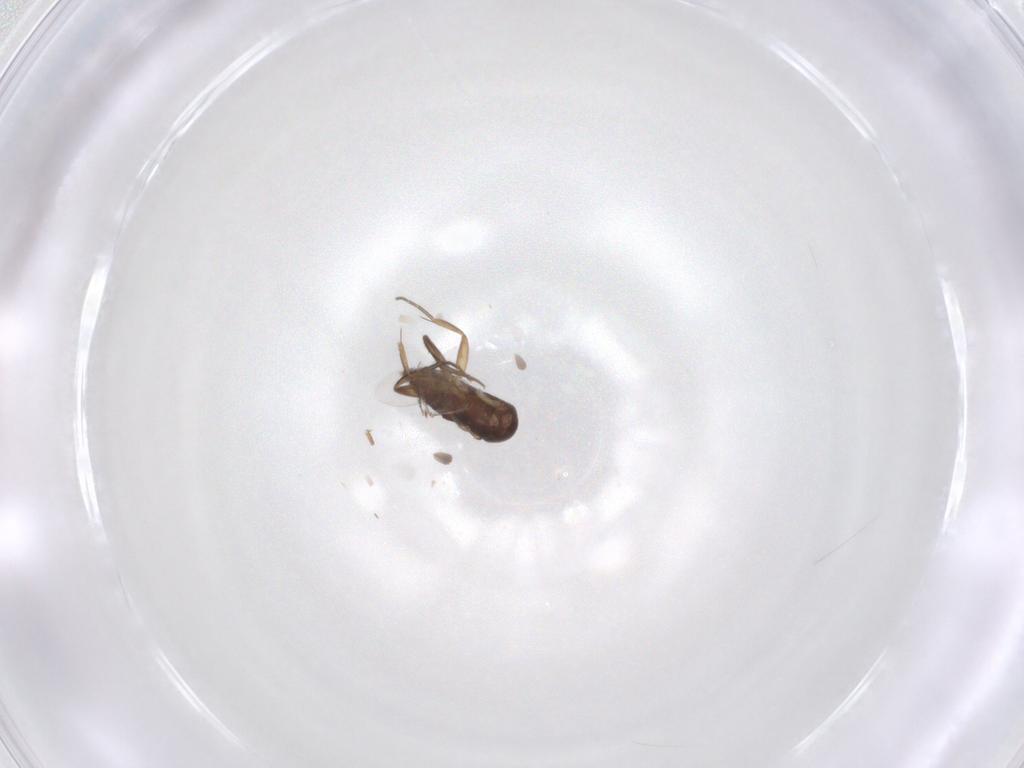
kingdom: Animalia
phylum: Arthropoda
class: Insecta
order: Diptera
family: Phoridae
